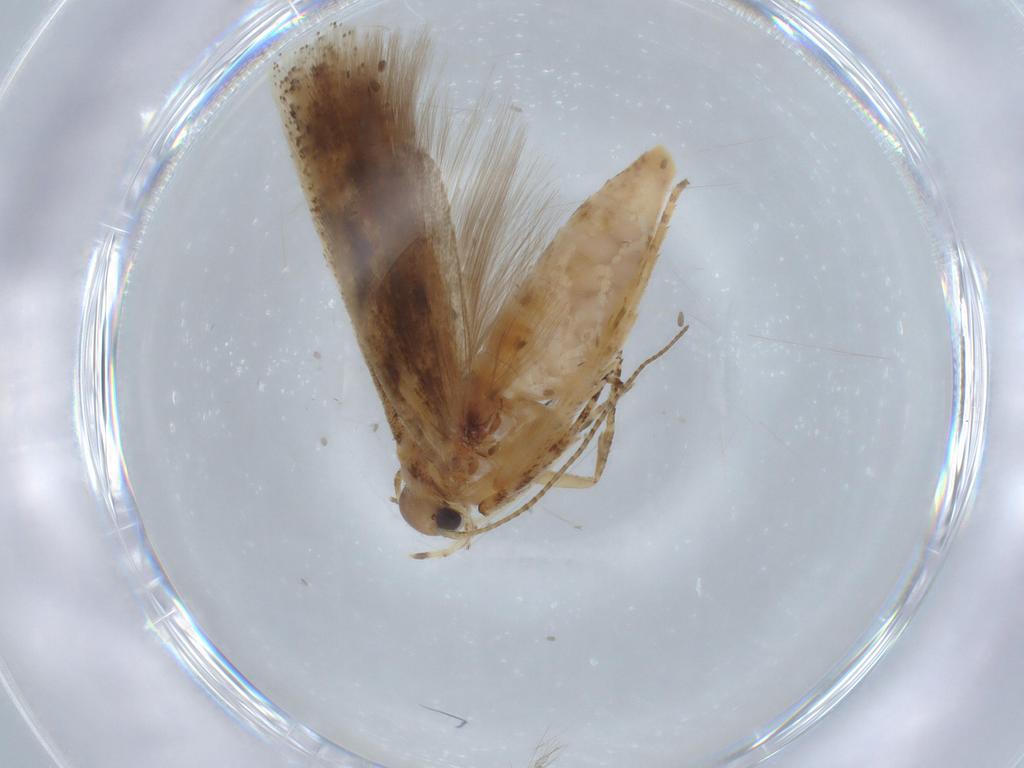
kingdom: Animalia
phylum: Arthropoda
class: Insecta
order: Lepidoptera
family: Gelechiidae
